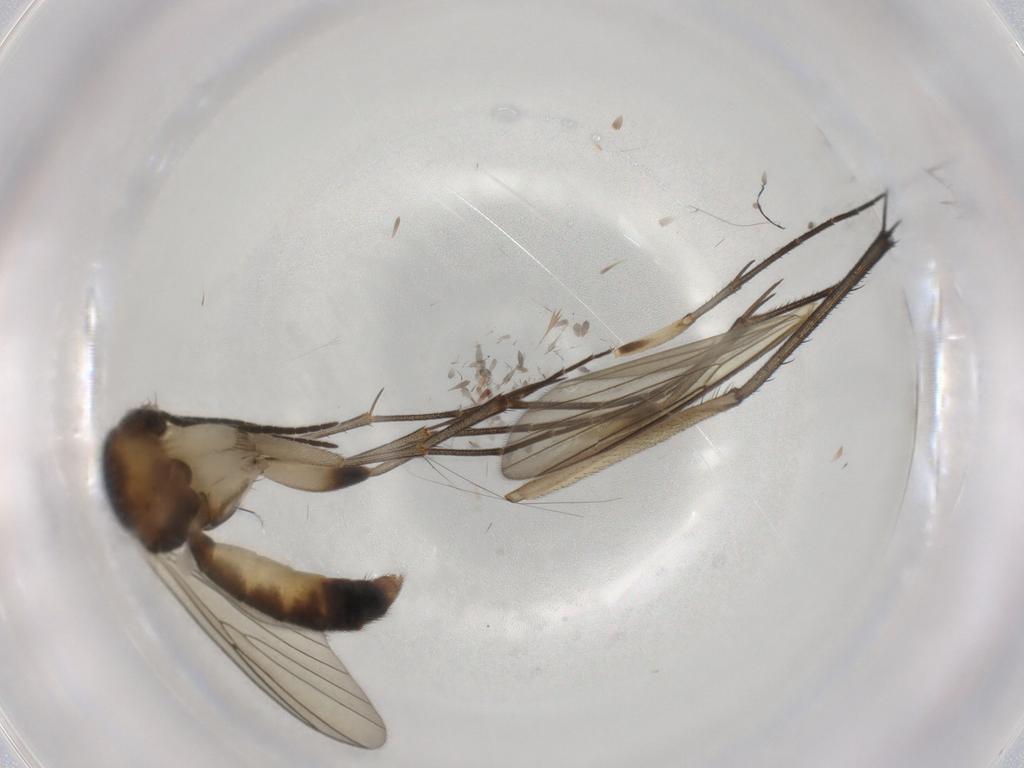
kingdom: Animalia
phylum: Arthropoda
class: Insecta
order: Diptera
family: Mycetophilidae
